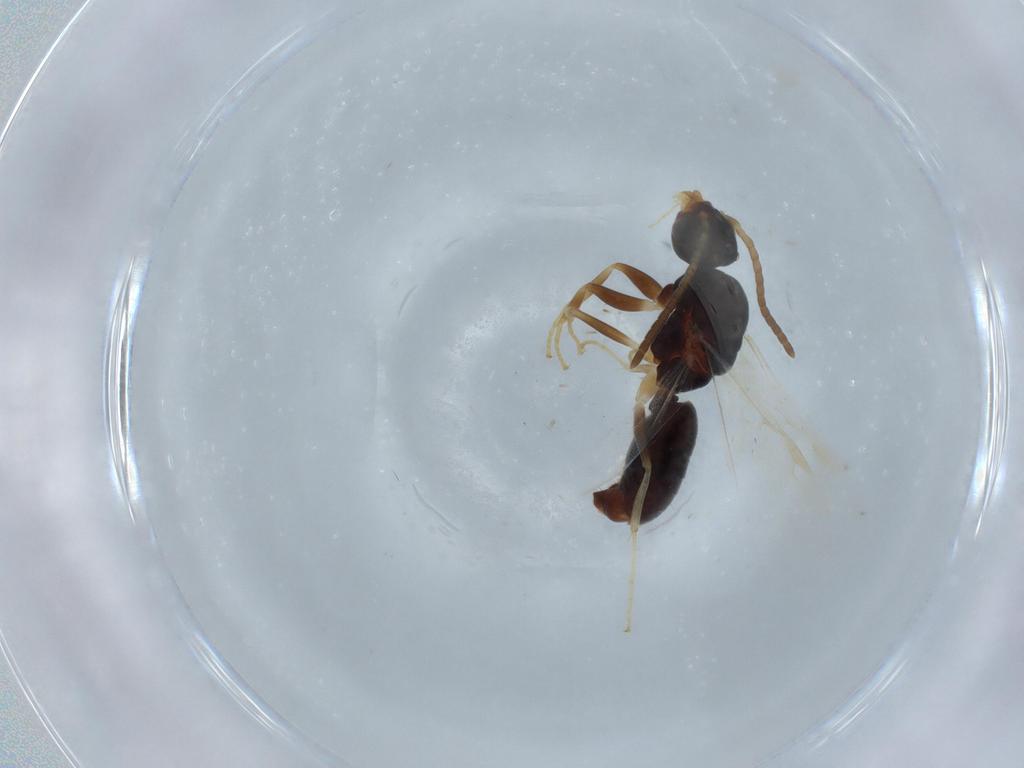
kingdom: Animalia
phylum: Arthropoda
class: Insecta
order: Hymenoptera
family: Formicidae
